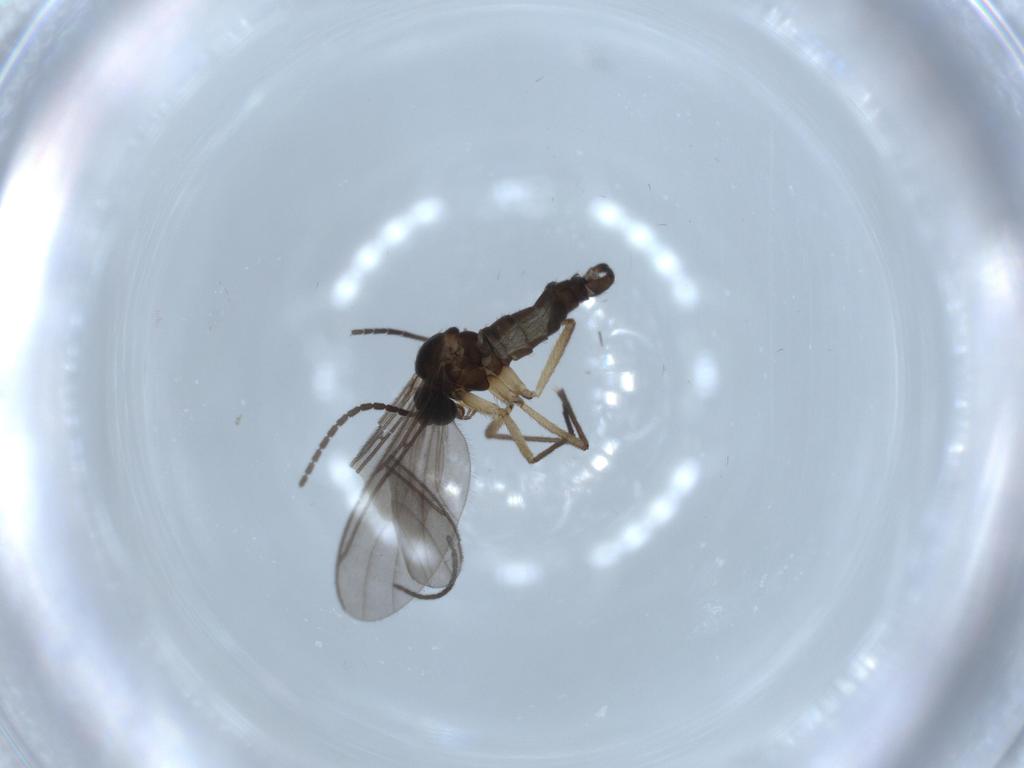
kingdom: Animalia
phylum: Arthropoda
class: Insecta
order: Diptera
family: Sciaridae
